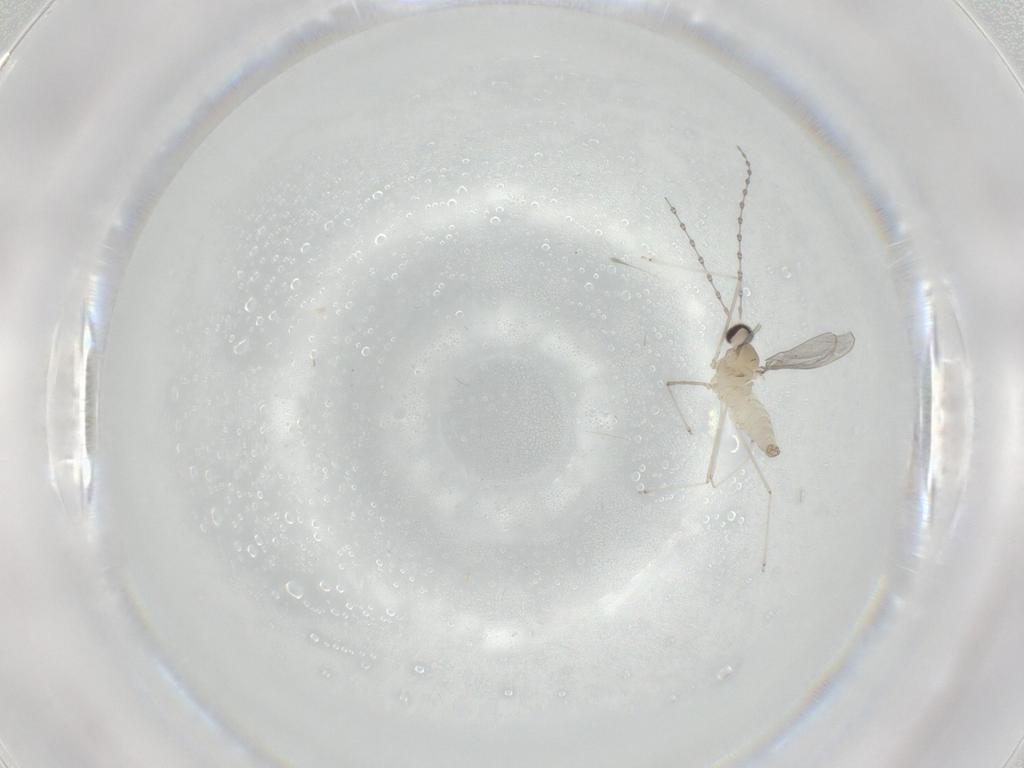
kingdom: Animalia
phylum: Arthropoda
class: Insecta
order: Diptera
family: Cecidomyiidae
